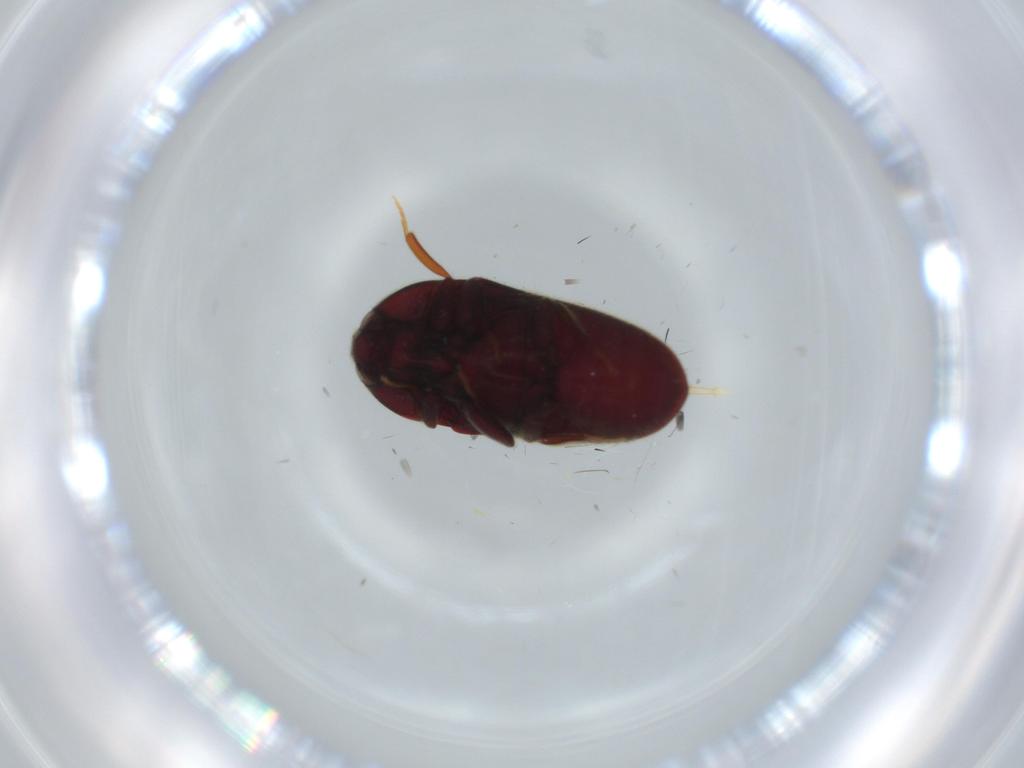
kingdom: Animalia
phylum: Arthropoda
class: Insecta
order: Coleoptera
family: Throscidae
